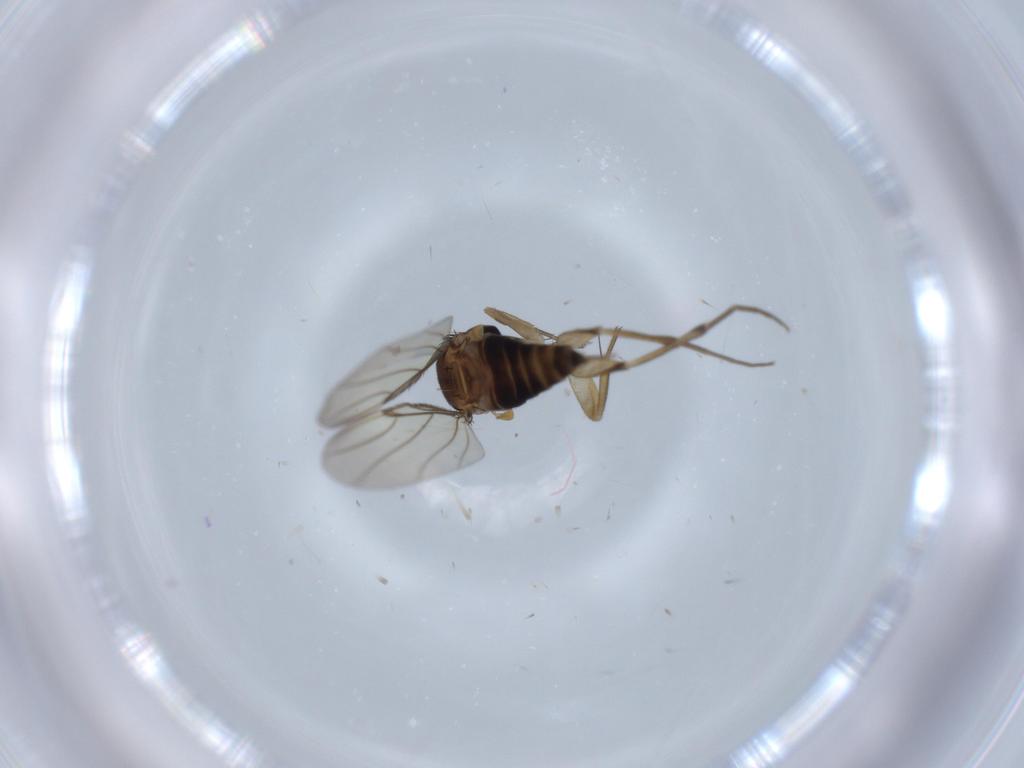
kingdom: Animalia
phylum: Arthropoda
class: Insecta
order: Diptera
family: Phoridae
